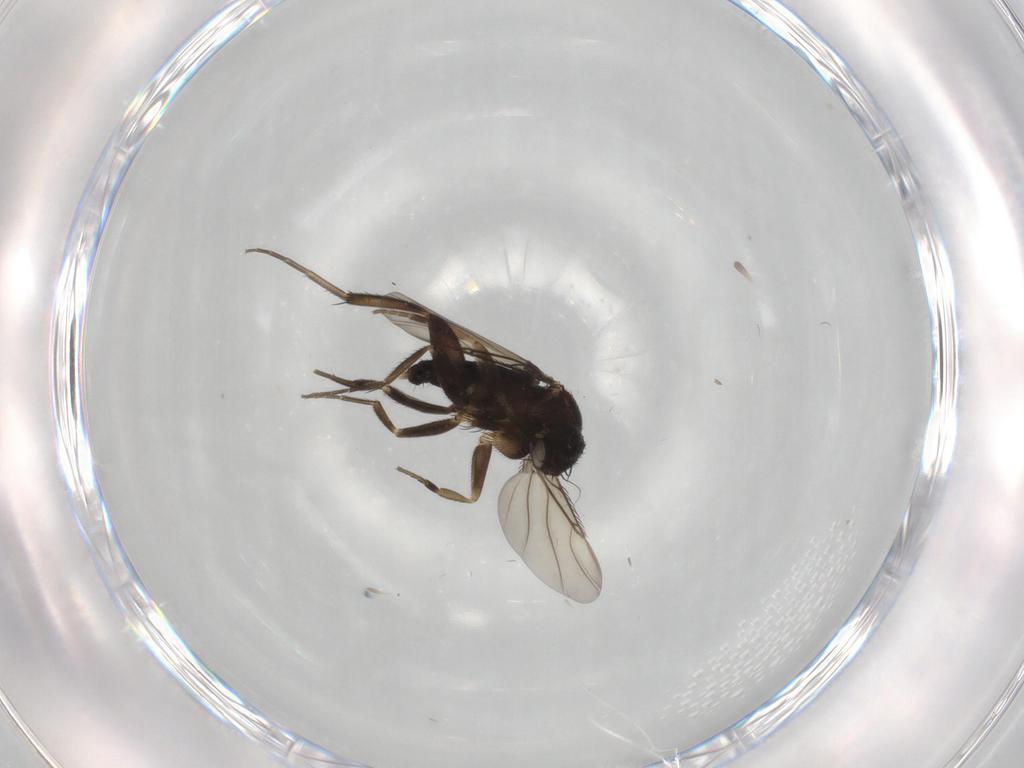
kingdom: Animalia
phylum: Arthropoda
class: Insecta
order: Diptera
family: Phoridae
